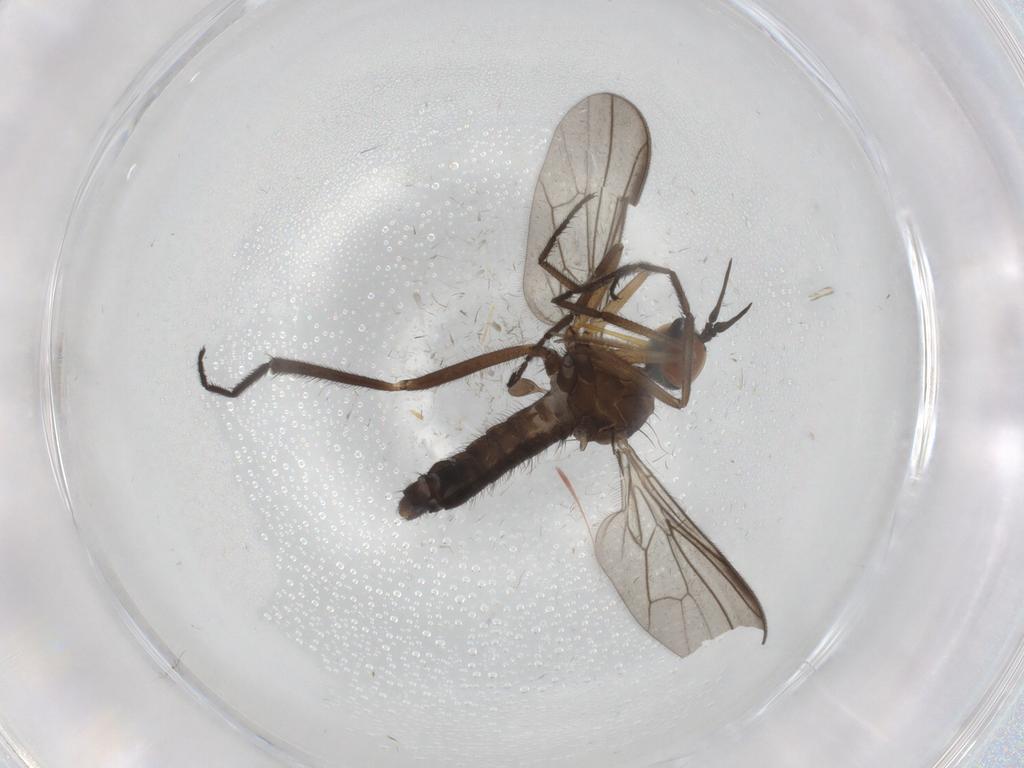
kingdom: Animalia
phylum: Arthropoda
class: Insecta
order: Diptera
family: Empididae
